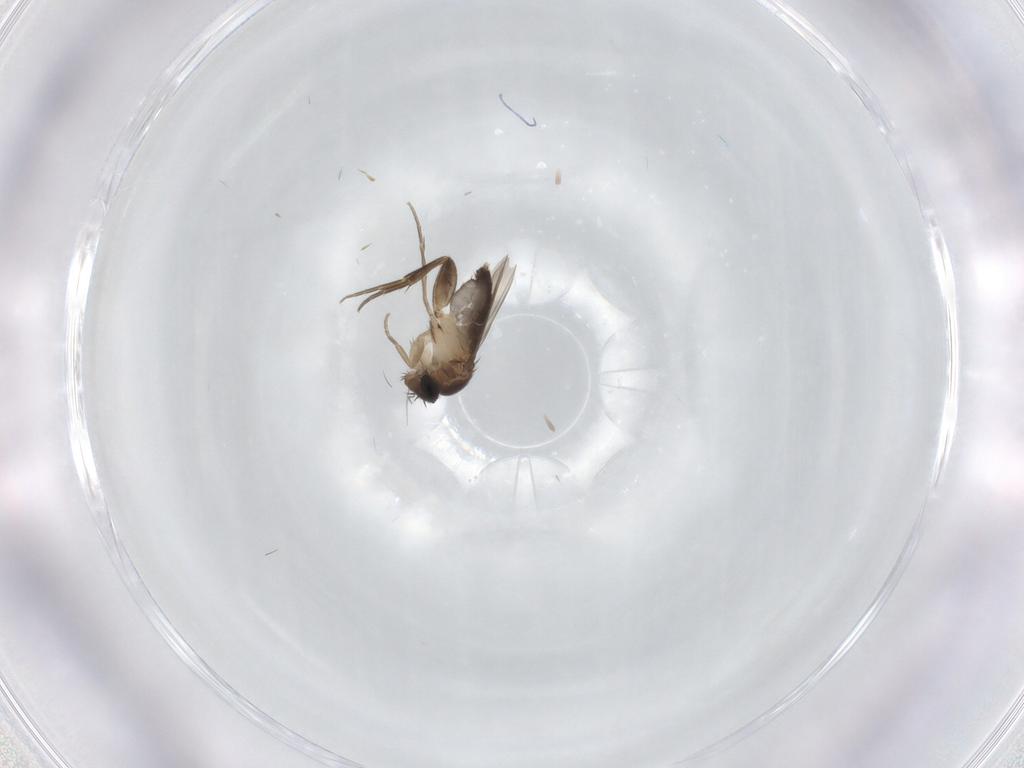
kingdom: Animalia
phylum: Arthropoda
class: Insecta
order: Diptera
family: Phoridae
